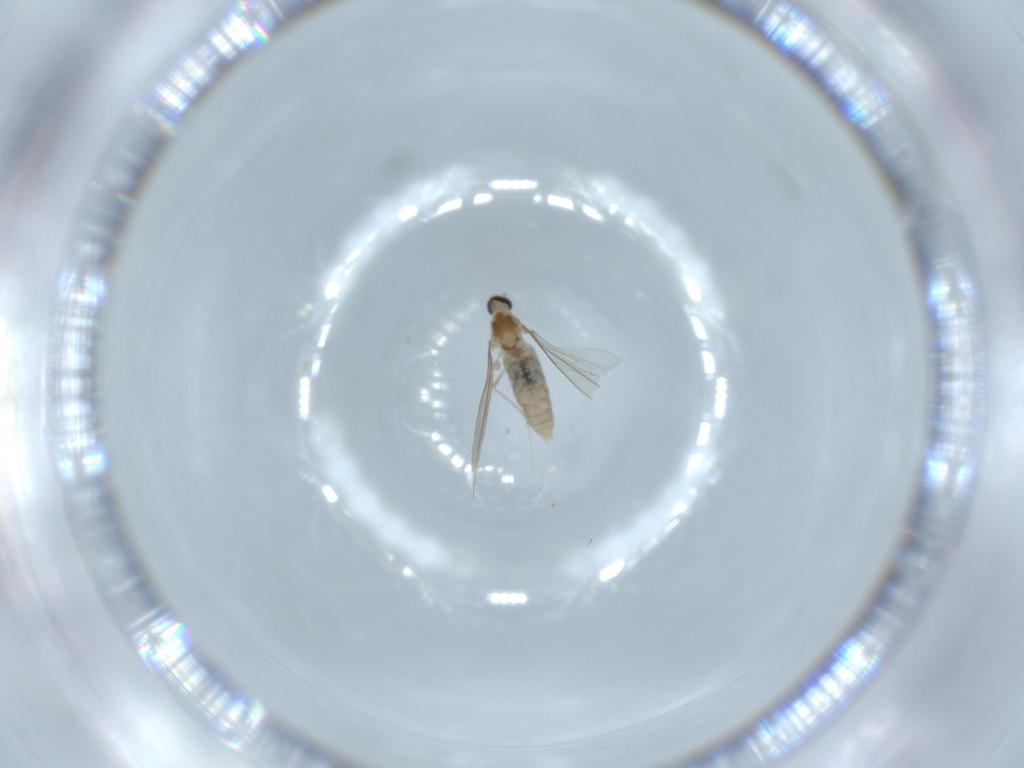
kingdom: Animalia
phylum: Arthropoda
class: Insecta
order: Diptera
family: Cecidomyiidae
